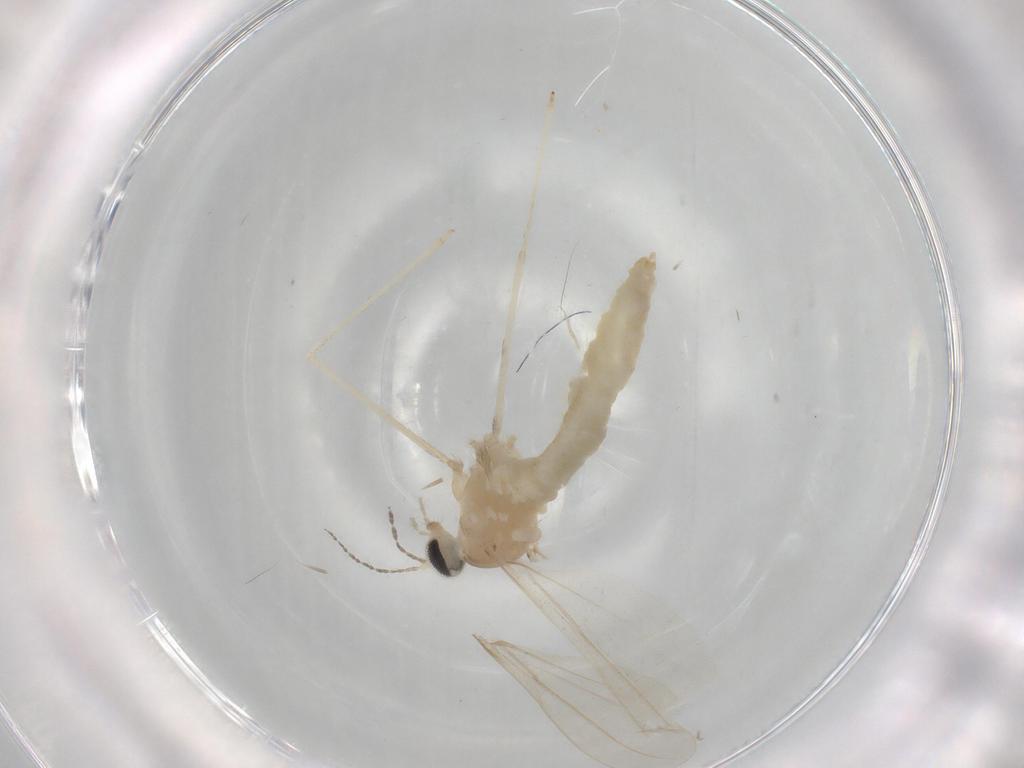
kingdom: Animalia
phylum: Arthropoda
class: Insecta
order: Diptera
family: Cecidomyiidae
